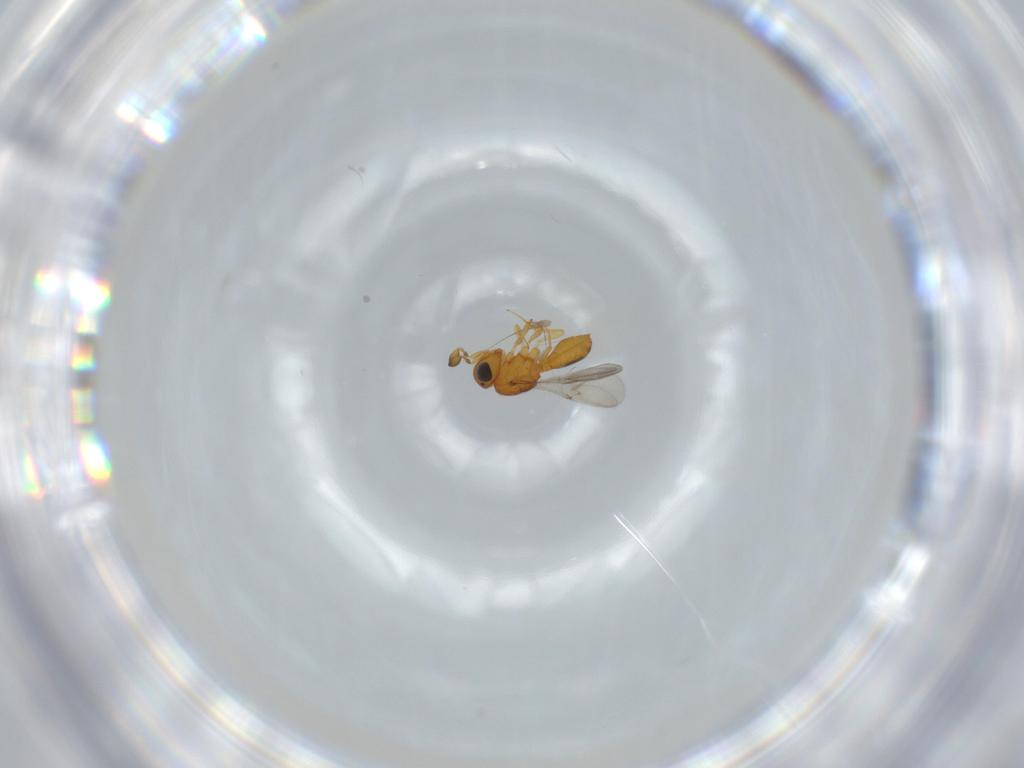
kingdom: Animalia
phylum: Arthropoda
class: Insecta
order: Hymenoptera
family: Scelionidae
